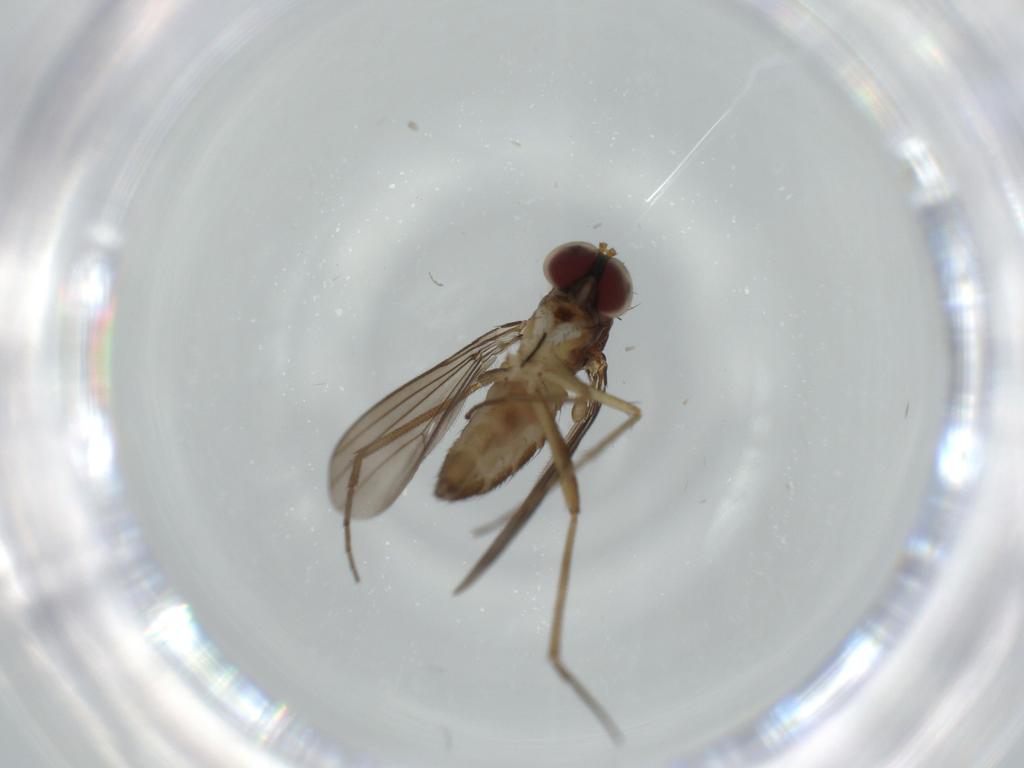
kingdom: Animalia
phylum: Arthropoda
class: Insecta
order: Diptera
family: Dolichopodidae
